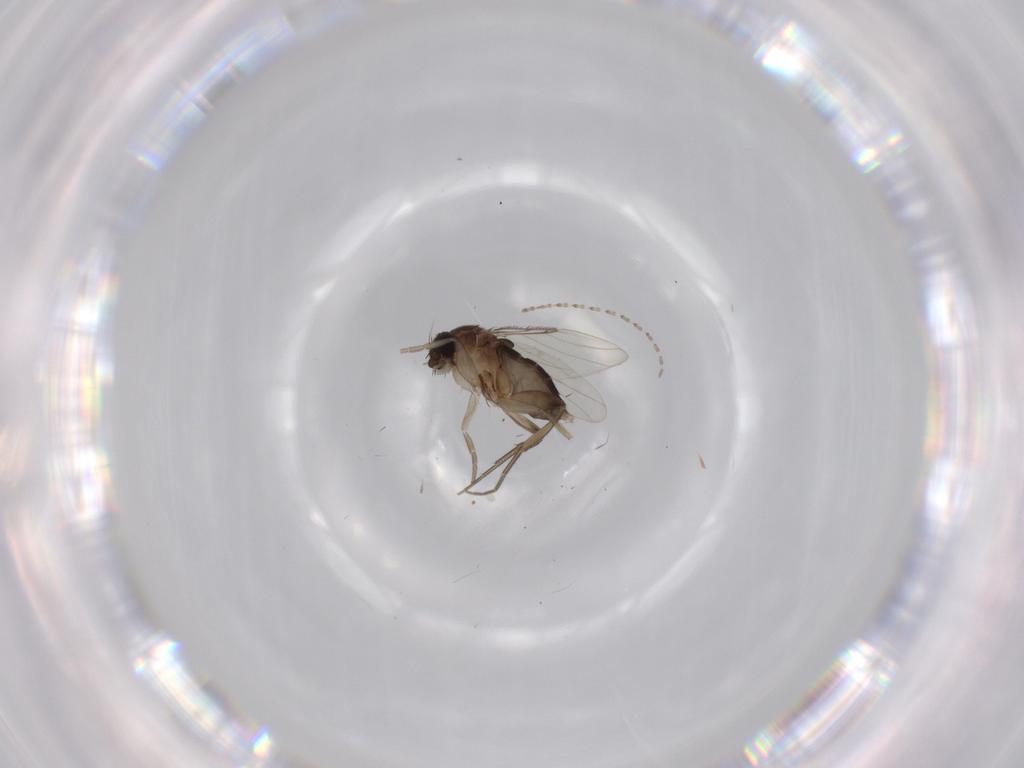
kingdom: Animalia
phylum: Arthropoda
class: Insecta
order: Diptera
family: Cecidomyiidae
